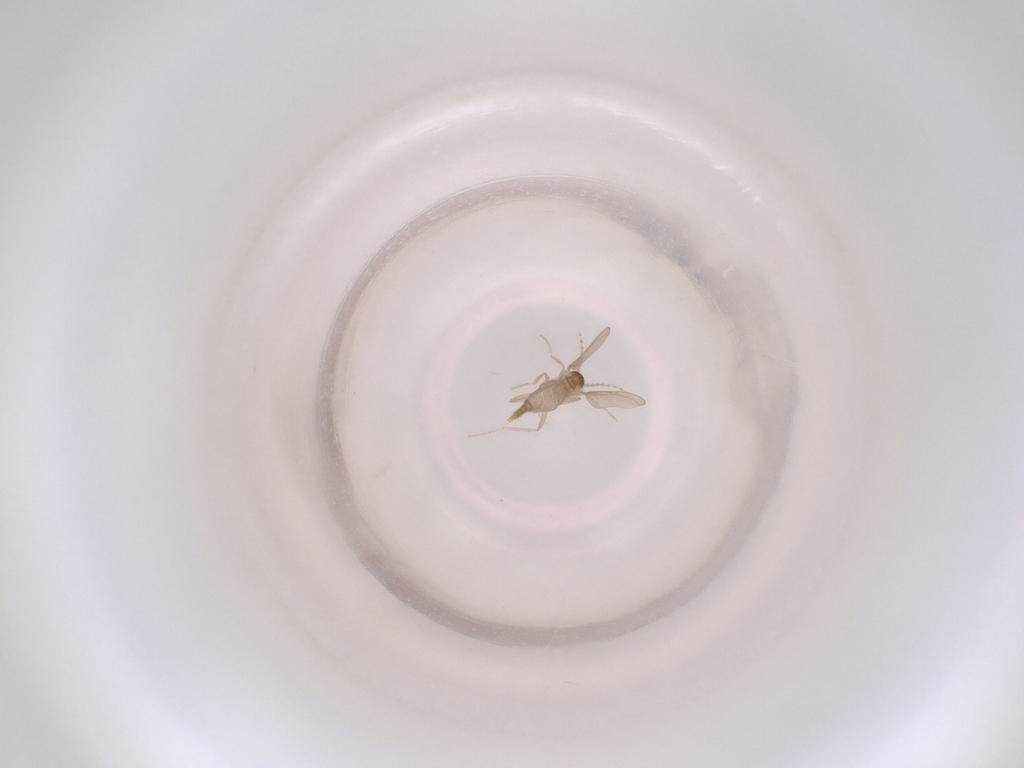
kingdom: Animalia
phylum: Arthropoda
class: Insecta
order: Diptera
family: Cecidomyiidae
